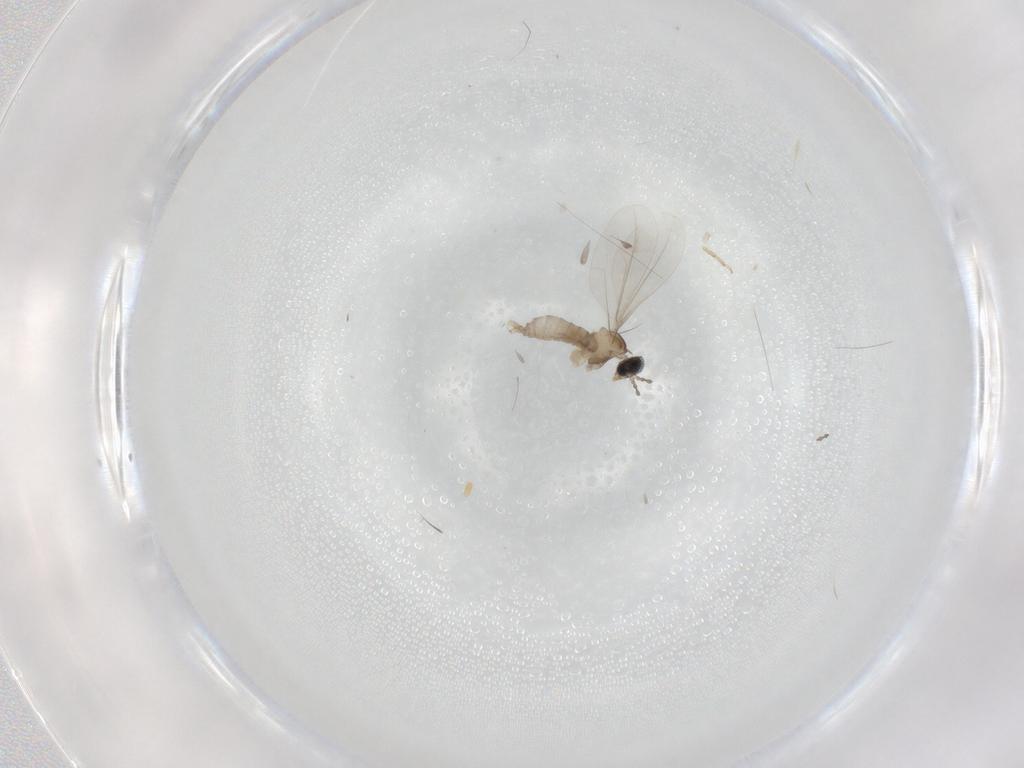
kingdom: Animalia
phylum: Arthropoda
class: Insecta
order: Diptera
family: Cecidomyiidae
